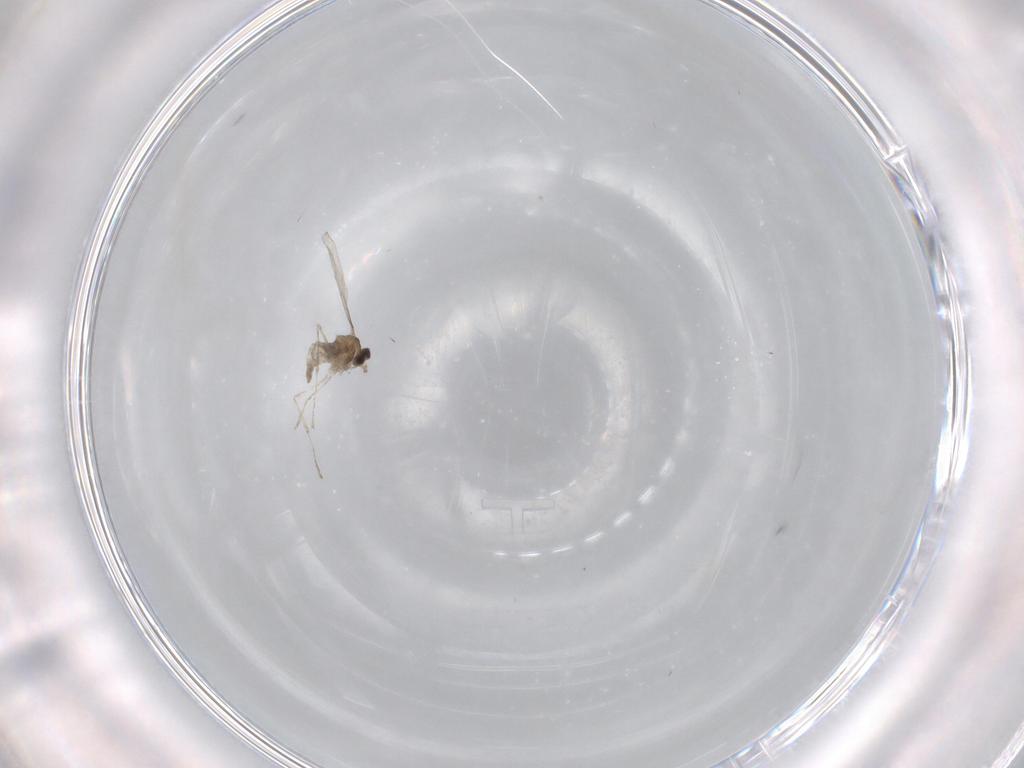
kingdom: Animalia
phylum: Arthropoda
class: Insecta
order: Diptera
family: Cecidomyiidae
